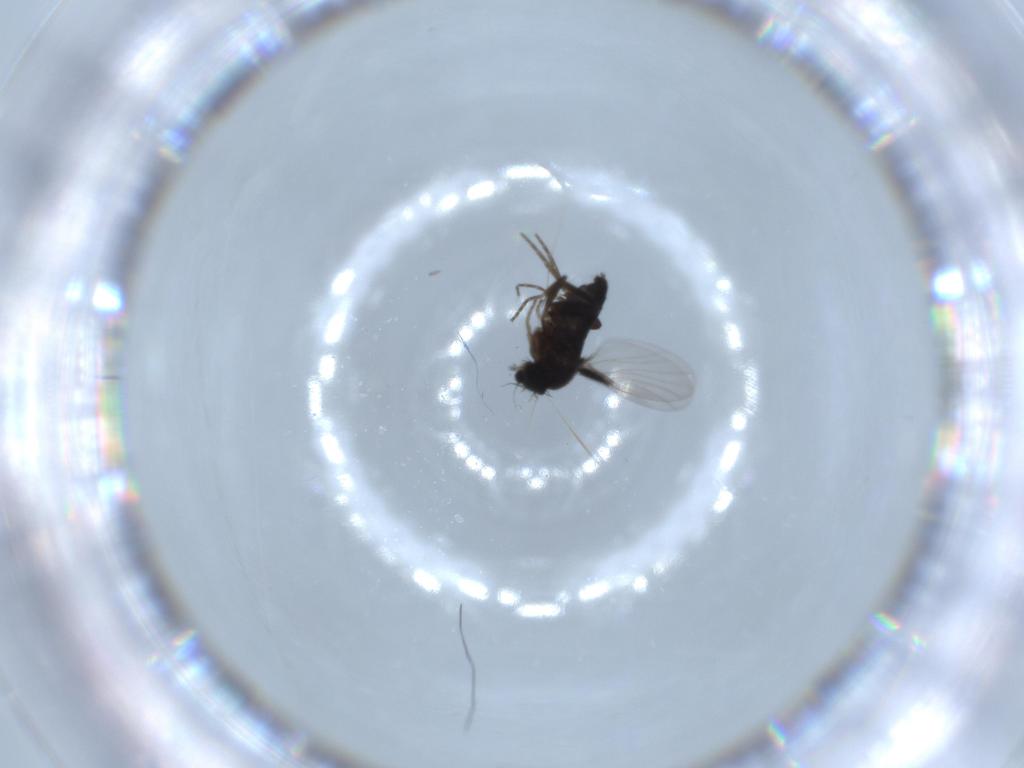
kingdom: Animalia
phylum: Arthropoda
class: Insecta
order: Diptera
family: Phoridae
